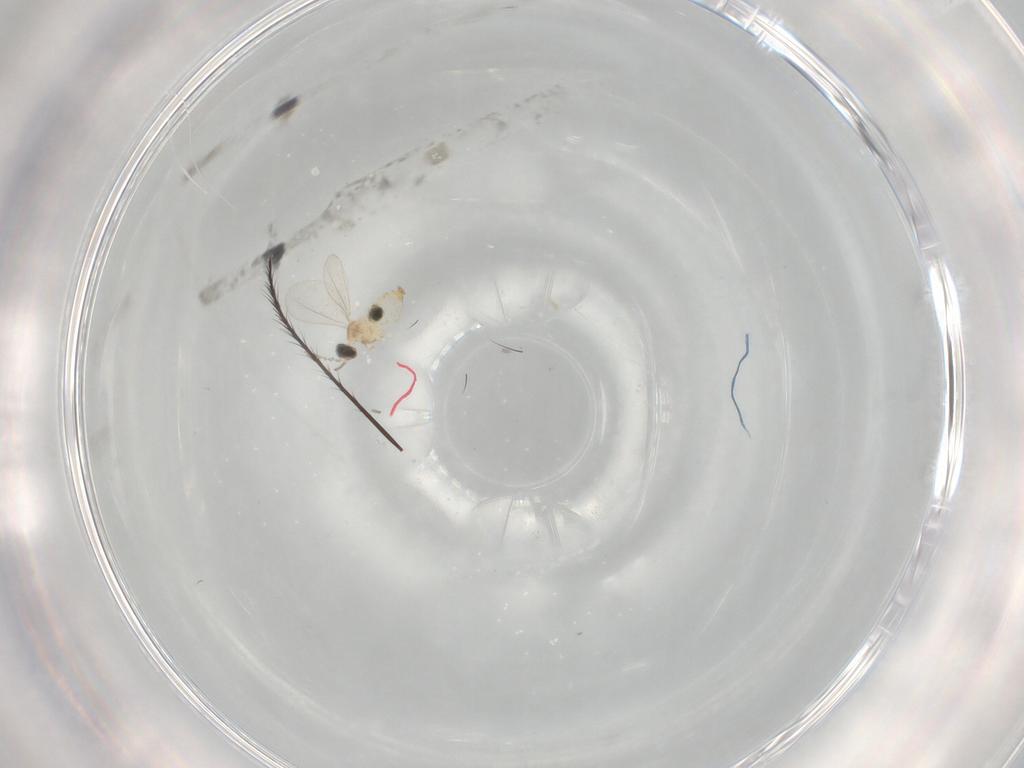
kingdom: Animalia
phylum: Arthropoda
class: Insecta
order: Diptera
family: Cecidomyiidae
